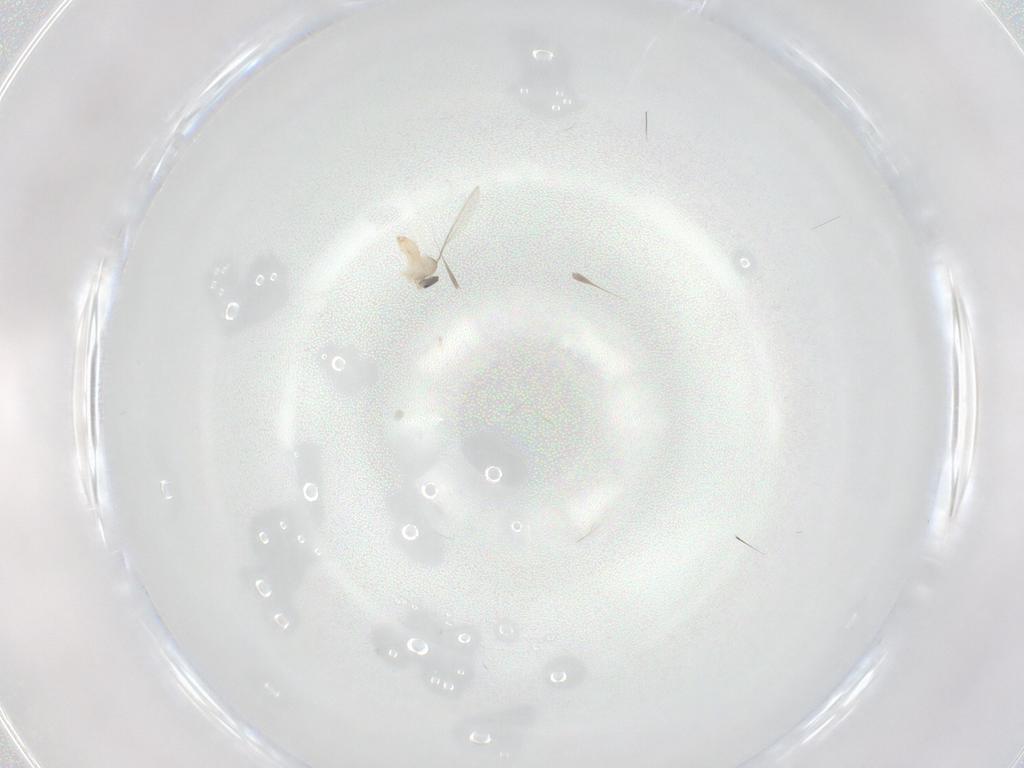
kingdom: Animalia
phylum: Arthropoda
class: Insecta
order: Diptera
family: Cecidomyiidae
